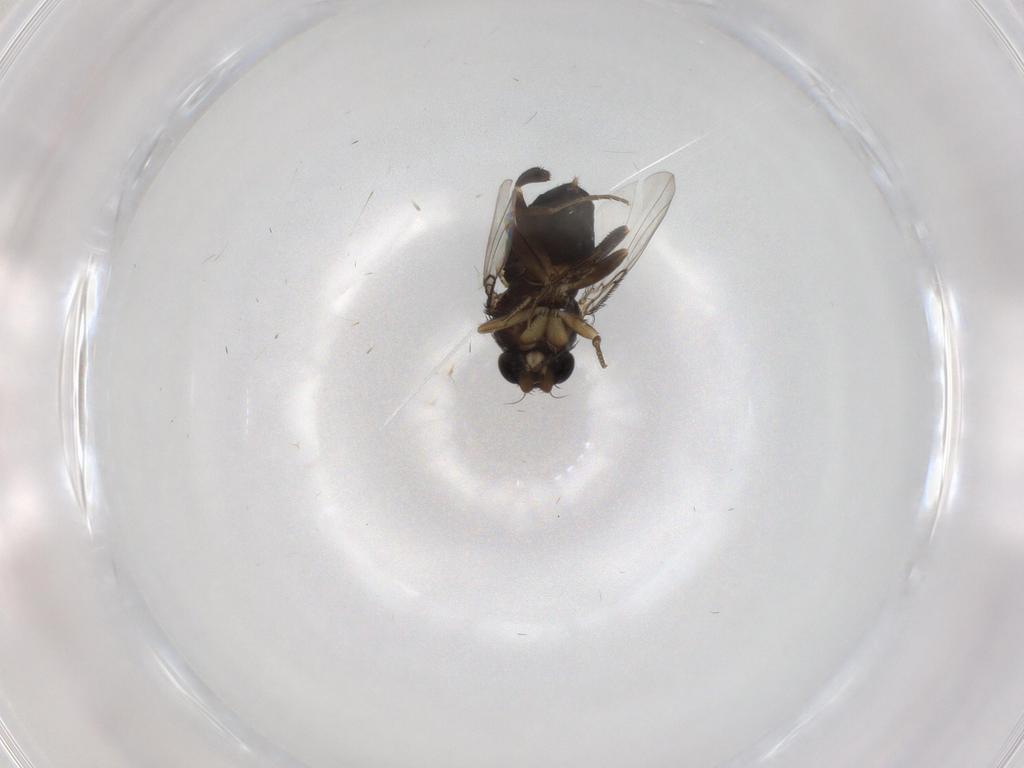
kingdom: Animalia
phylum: Arthropoda
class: Insecta
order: Diptera
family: Phoridae
